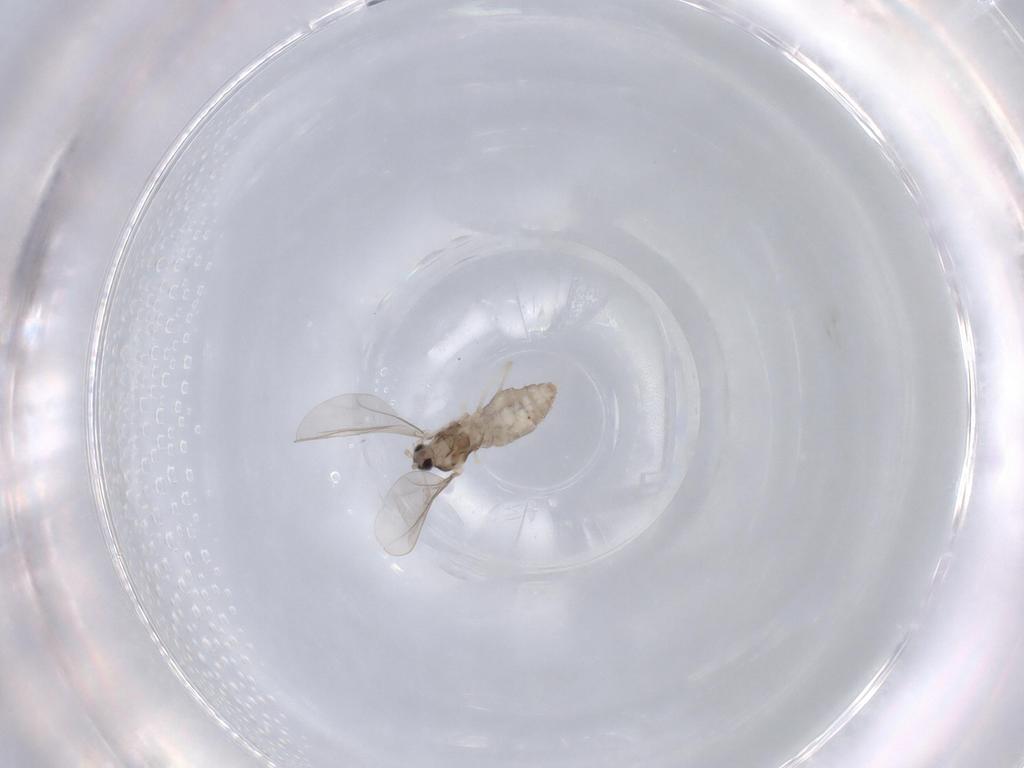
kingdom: Animalia
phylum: Arthropoda
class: Insecta
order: Diptera
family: Cecidomyiidae
